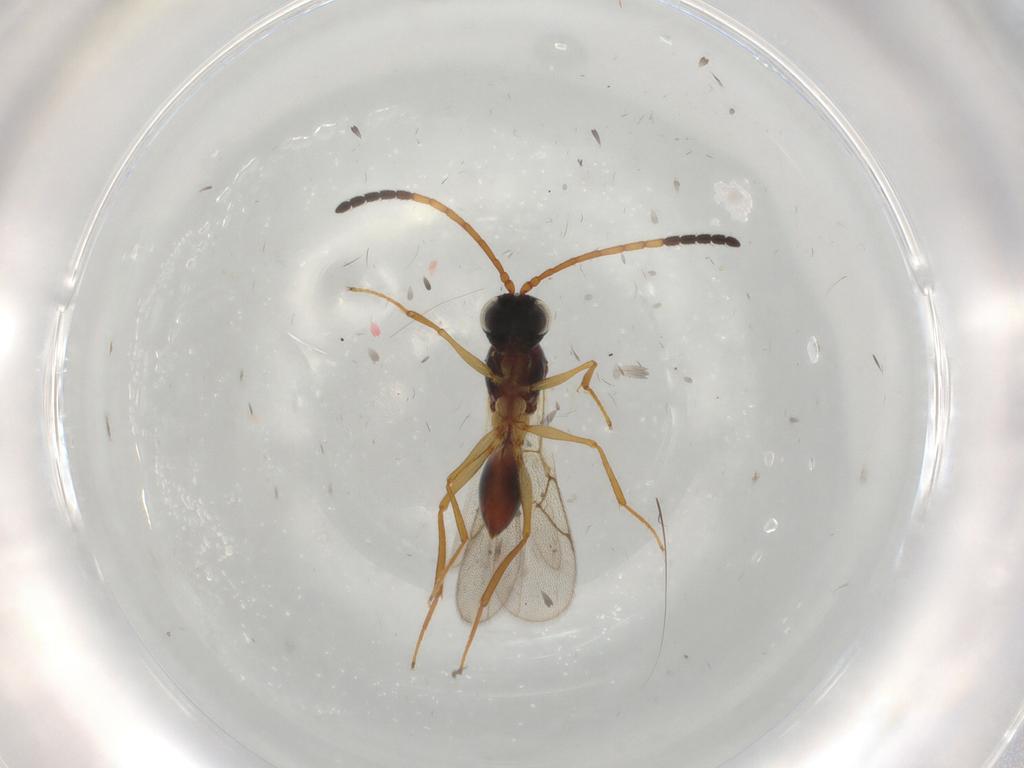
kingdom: Animalia
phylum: Arthropoda
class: Insecta
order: Hymenoptera
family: Figitidae
